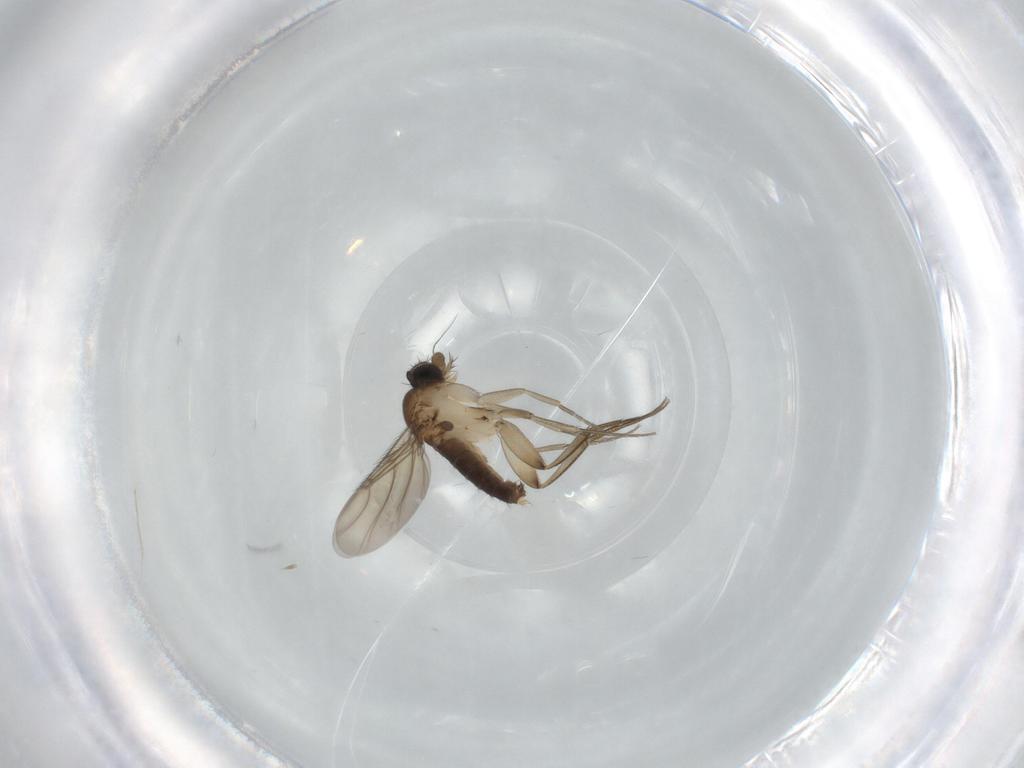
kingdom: Animalia
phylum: Arthropoda
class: Insecta
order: Diptera
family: Phoridae
